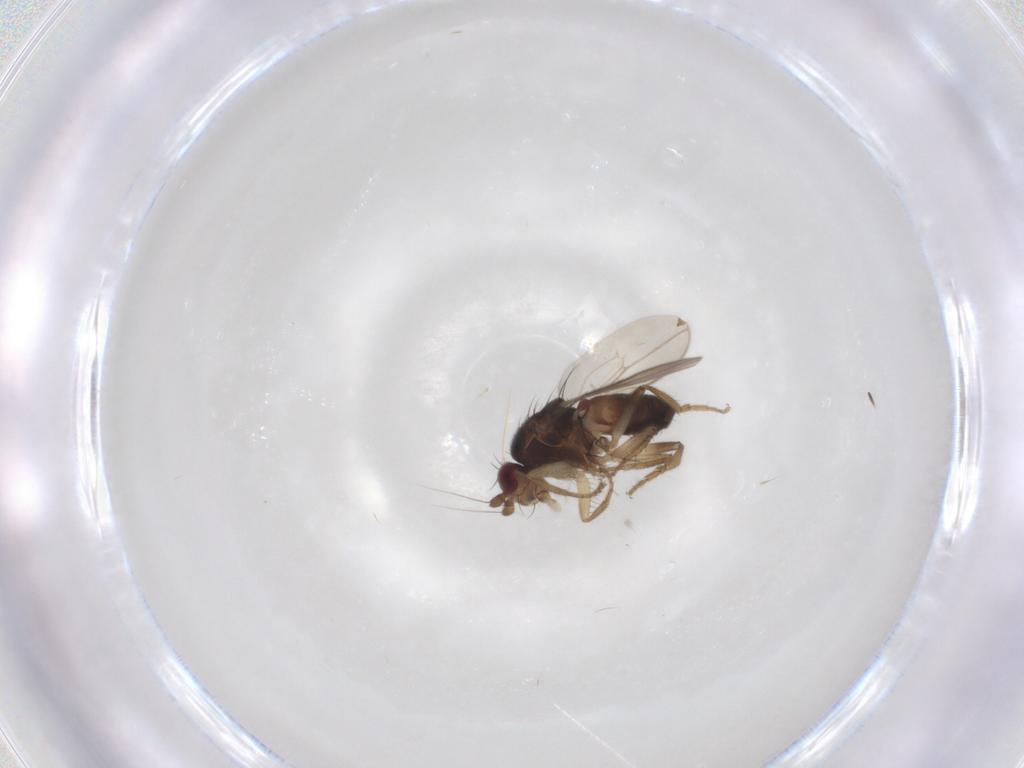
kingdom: Animalia
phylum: Arthropoda
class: Insecta
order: Diptera
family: Sphaeroceridae
